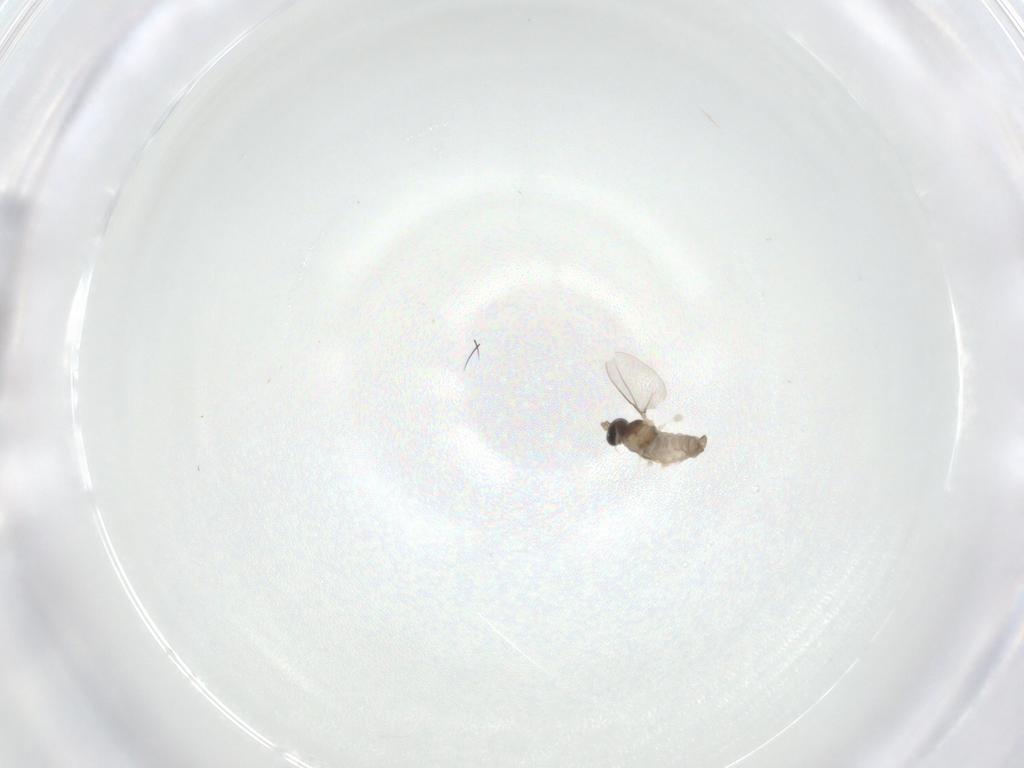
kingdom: Animalia
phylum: Arthropoda
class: Insecta
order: Diptera
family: Cecidomyiidae
